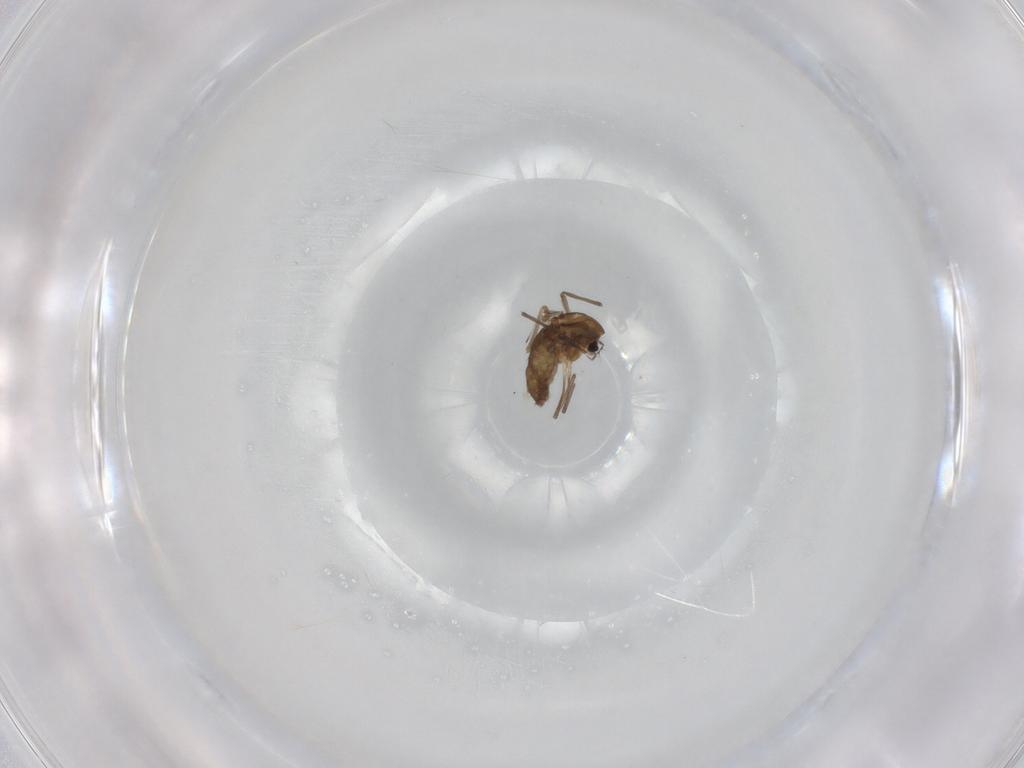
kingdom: Animalia
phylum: Arthropoda
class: Insecta
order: Diptera
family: Chironomidae
